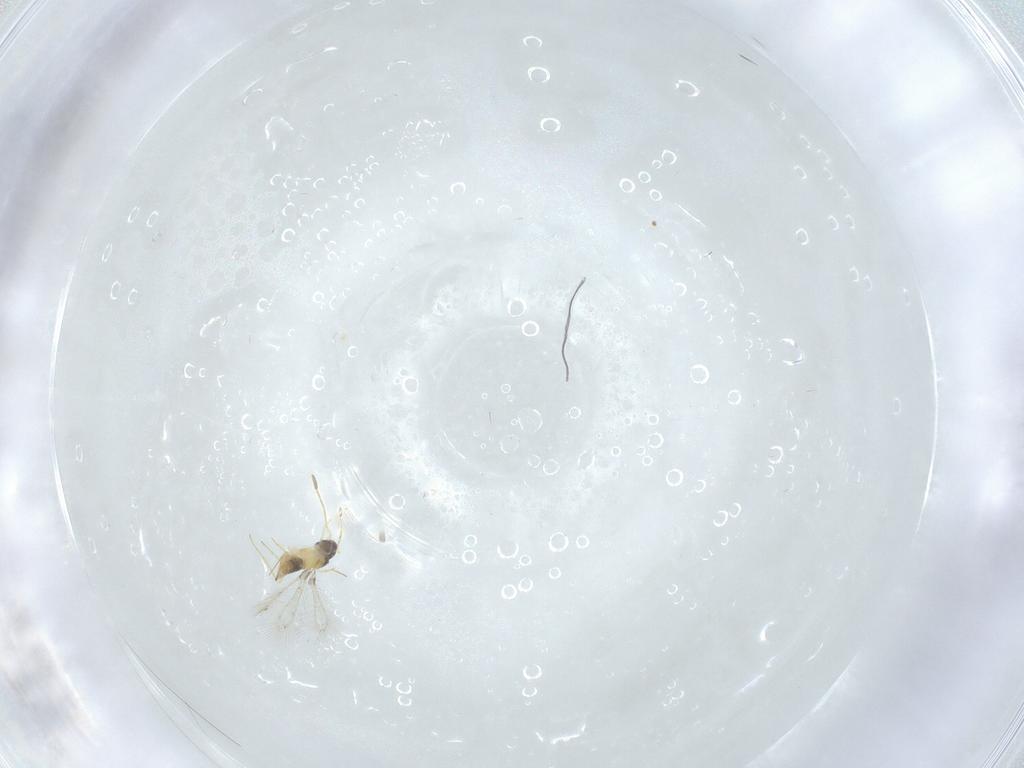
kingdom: Animalia
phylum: Arthropoda
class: Insecta
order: Hymenoptera
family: Mymaridae
